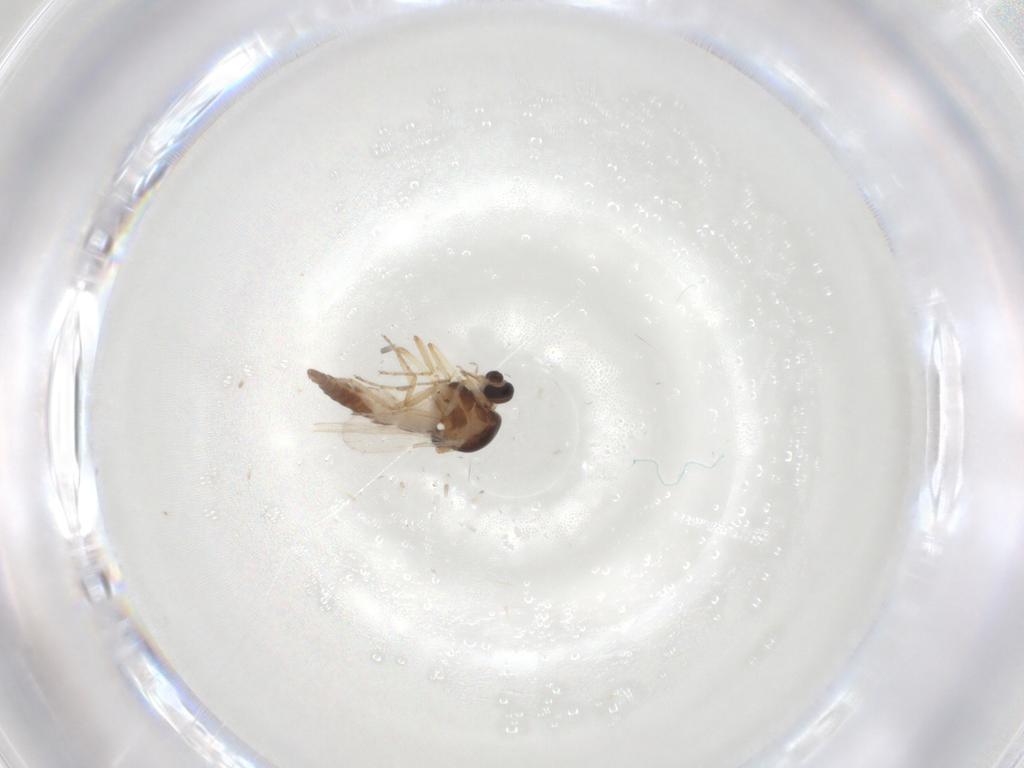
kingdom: Animalia
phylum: Arthropoda
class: Insecta
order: Diptera
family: Ceratopogonidae
